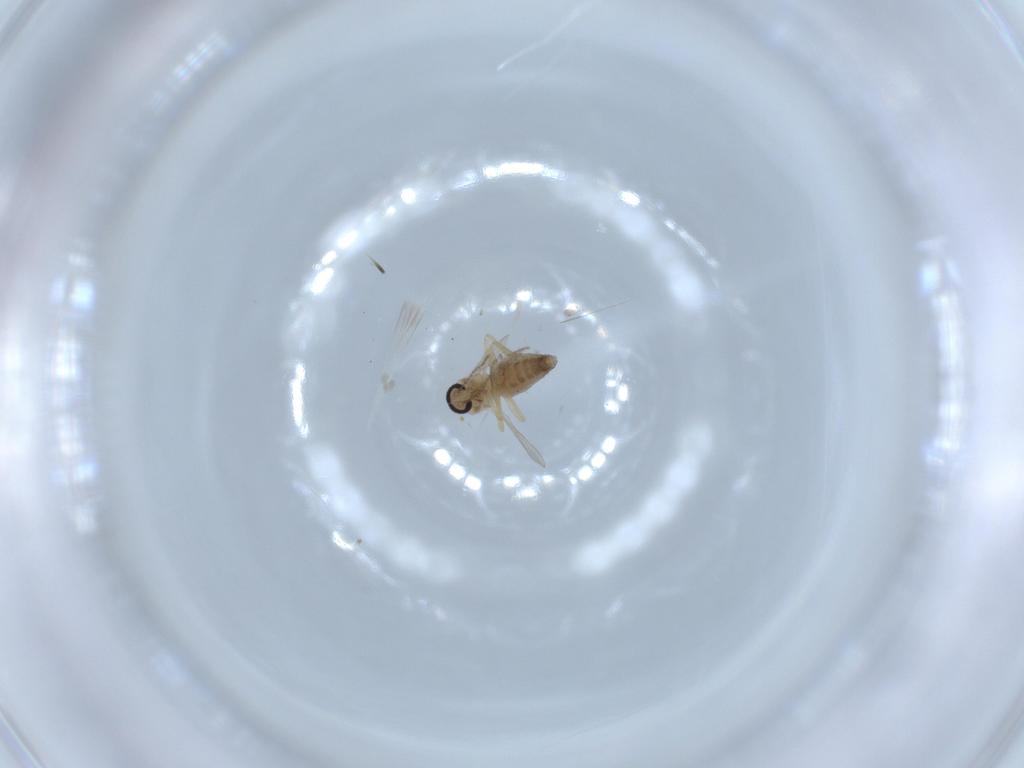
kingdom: Animalia
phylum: Arthropoda
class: Insecta
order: Diptera
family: Ceratopogonidae
